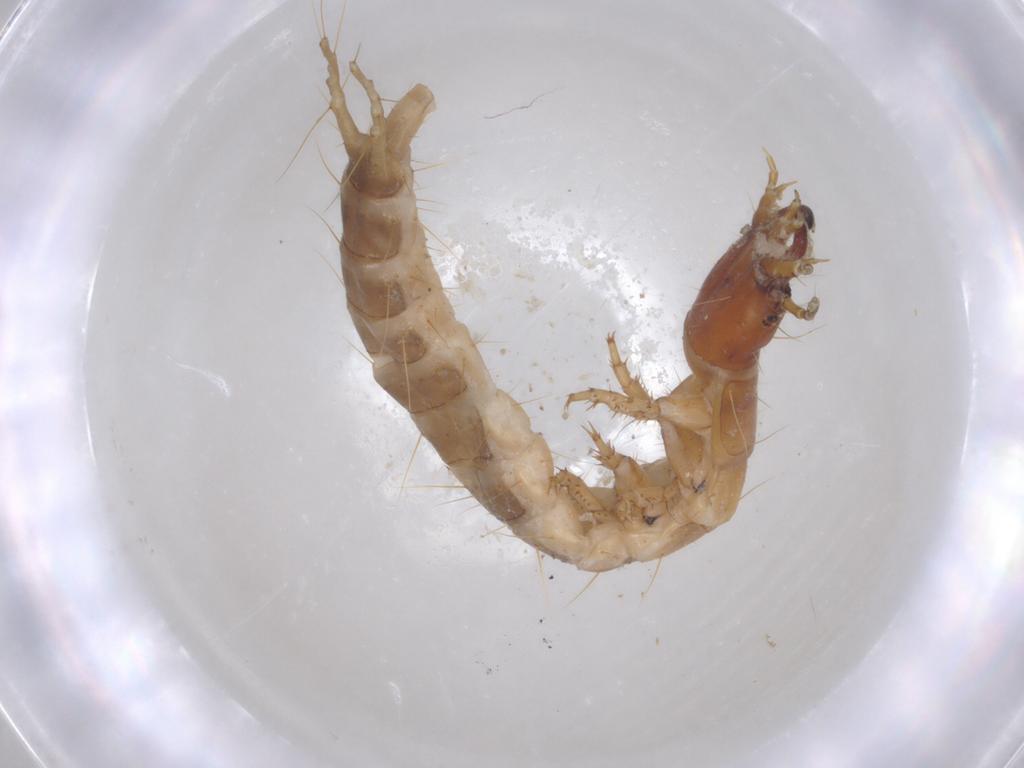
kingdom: Animalia
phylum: Arthropoda
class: Insecta
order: Coleoptera
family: Carabidae
